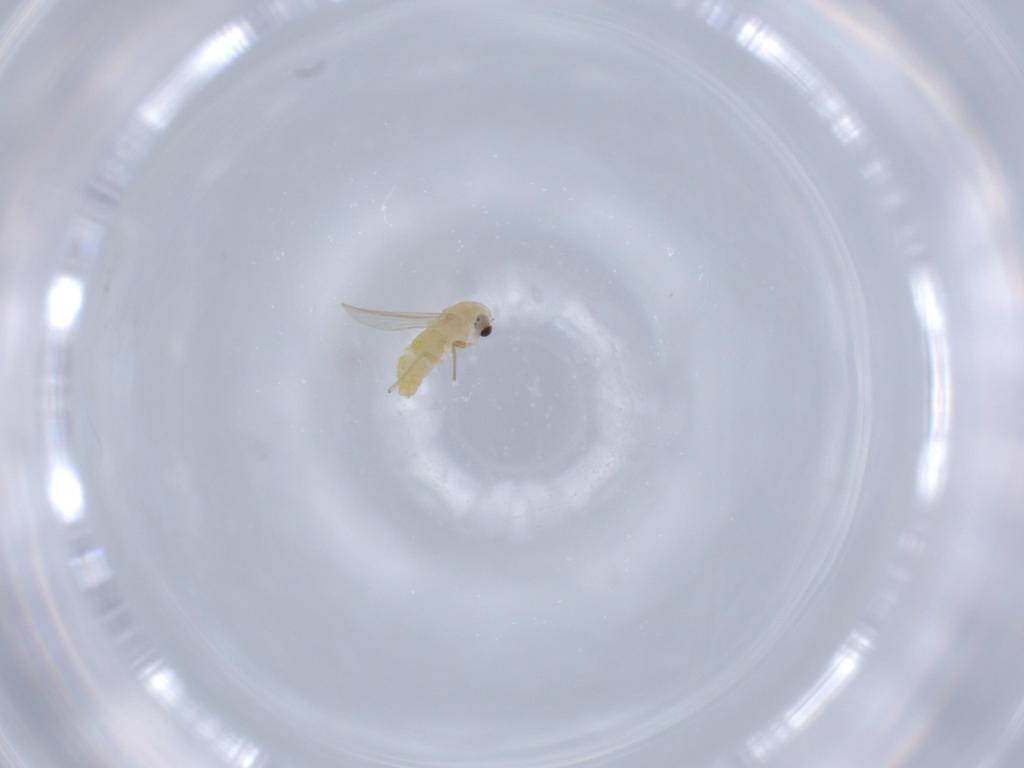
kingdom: Animalia
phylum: Arthropoda
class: Insecta
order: Diptera
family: Chironomidae
